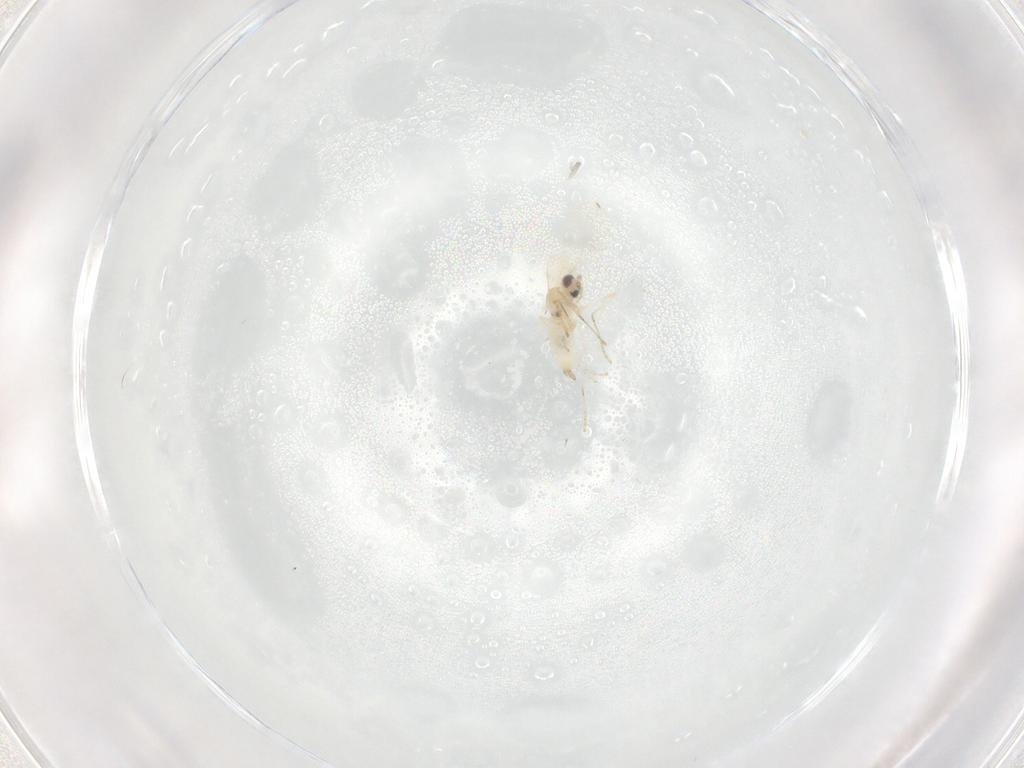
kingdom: Animalia
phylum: Arthropoda
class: Insecta
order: Diptera
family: Cecidomyiidae
